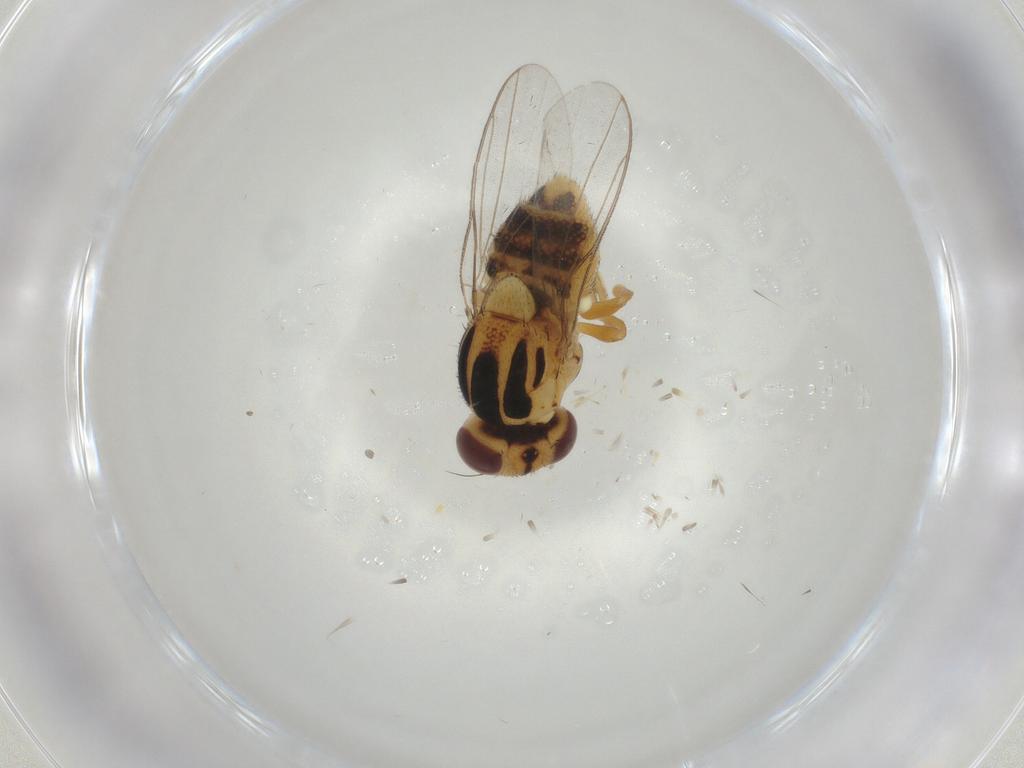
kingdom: Animalia
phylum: Arthropoda
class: Insecta
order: Diptera
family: Chloropidae
